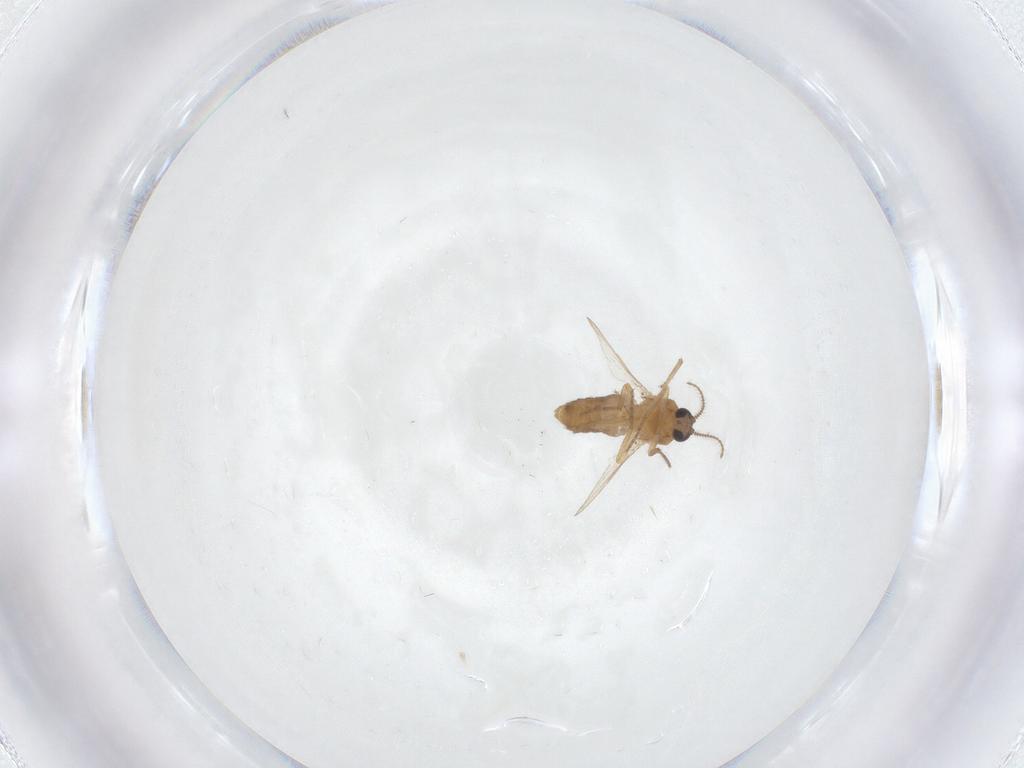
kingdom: Animalia
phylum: Arthropoda
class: Insecta
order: Diptera
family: Ceratopogonidae
